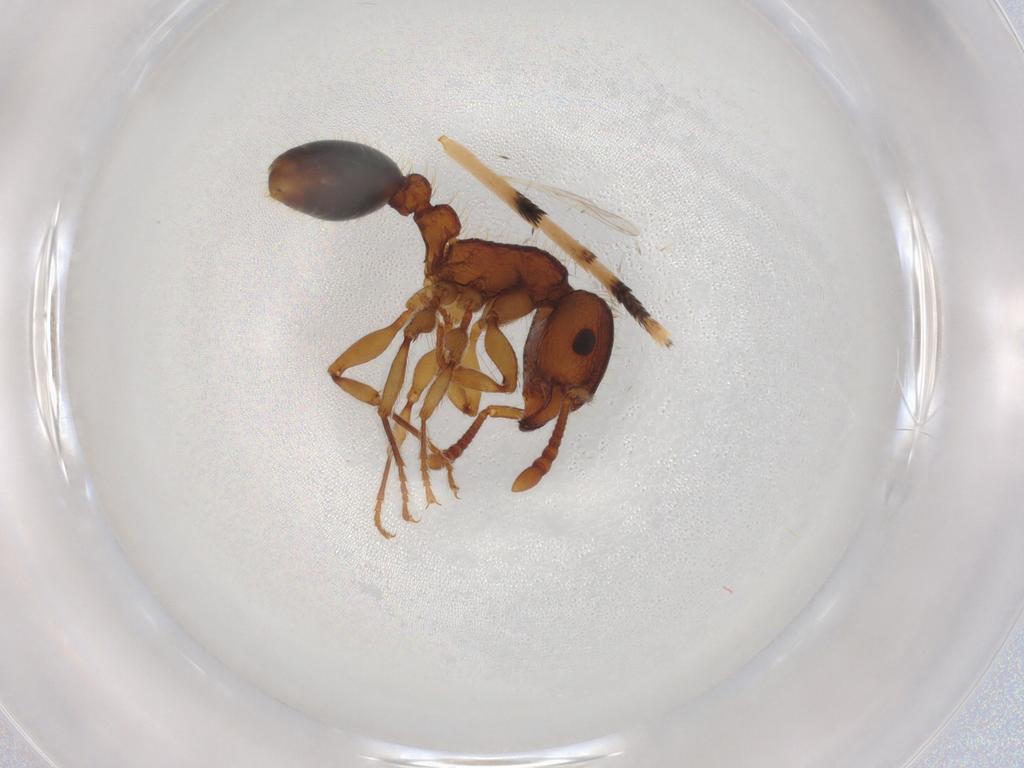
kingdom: Animalia
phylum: Arthropoda
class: Insecta
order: Hymenoptera
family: Formicidae
